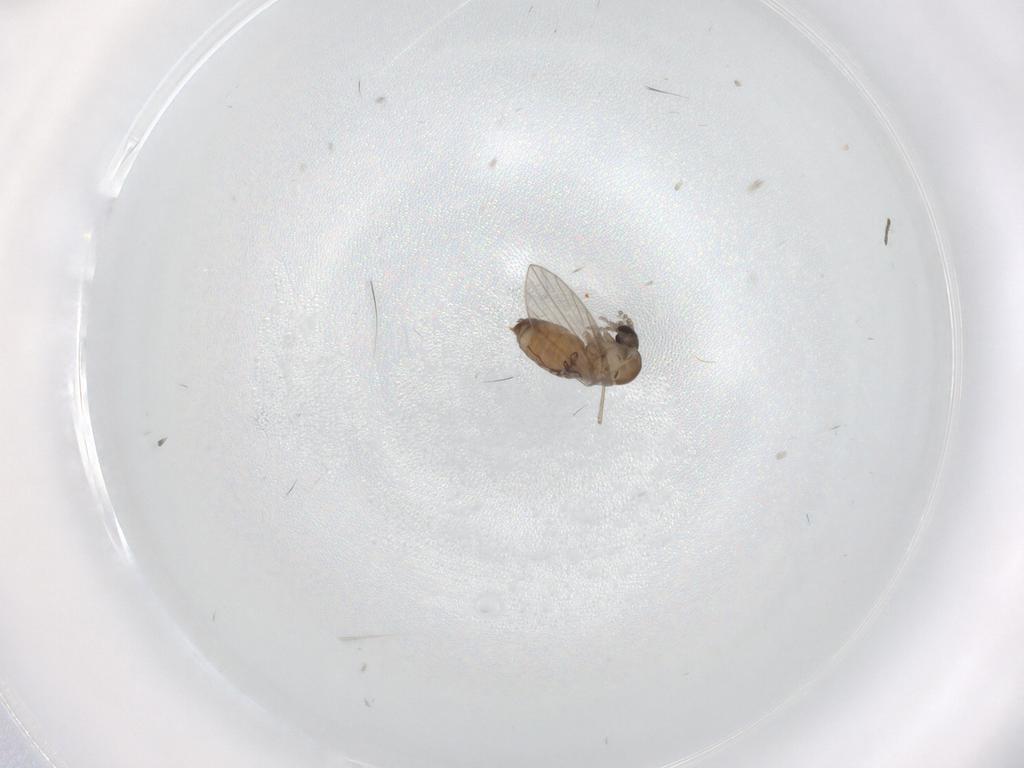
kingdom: Animalia
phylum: Arthropoda
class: Insecta
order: Diptera
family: Psychodidae
